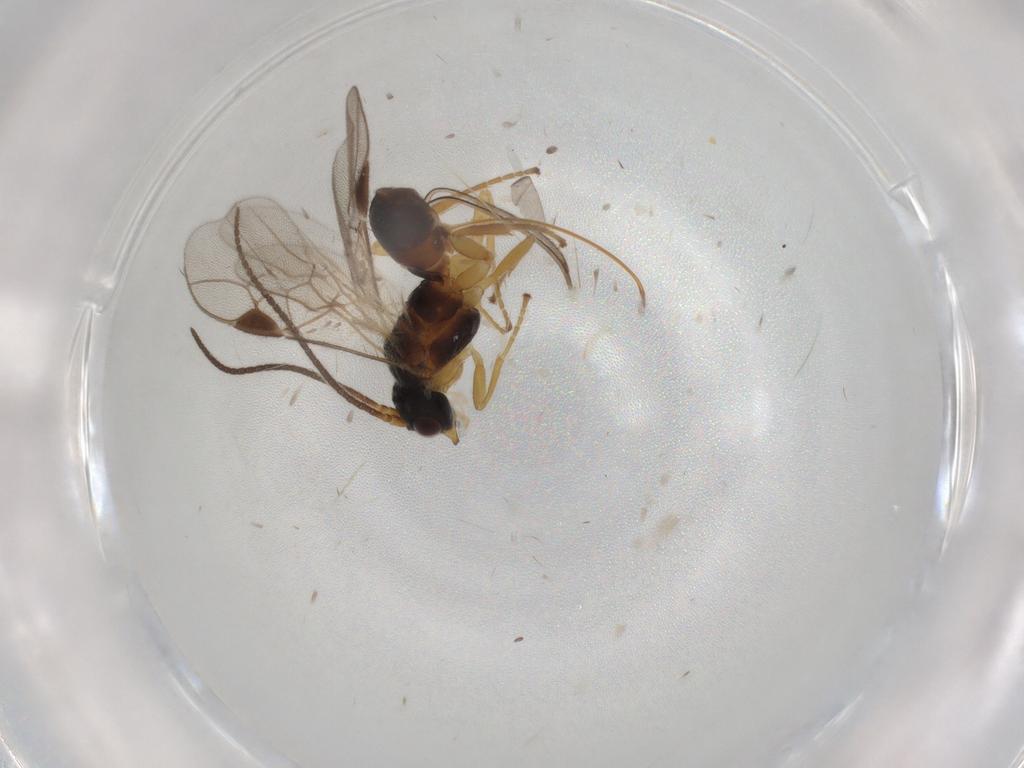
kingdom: Animalia
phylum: Arthropoda
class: Insecta
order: Hymenoptera
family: Braconidae
